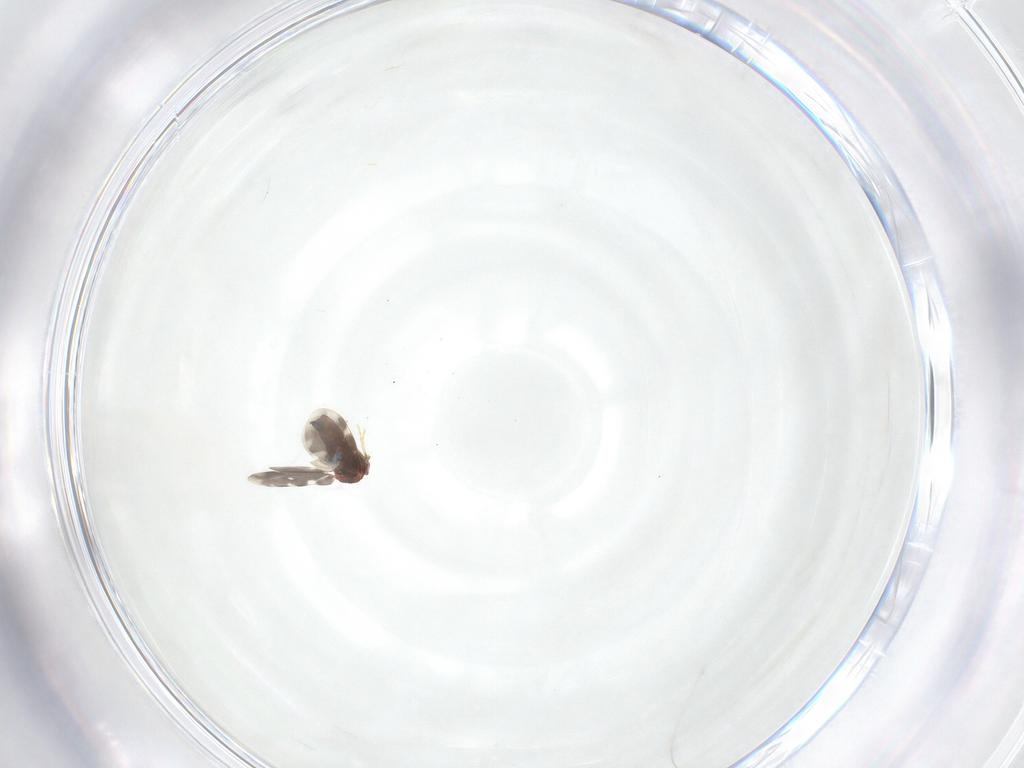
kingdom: Animalia
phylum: Arthropoda
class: Insecta
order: Hemiptera
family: Aleyrodidae
